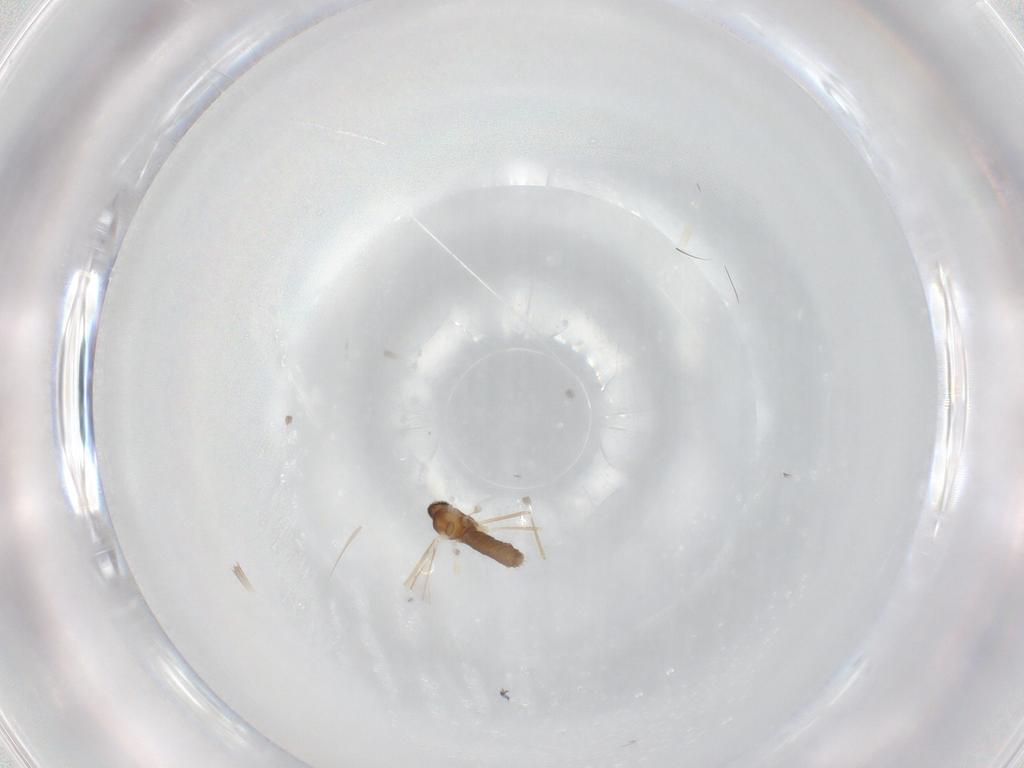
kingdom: Animalia
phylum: Arthropoda
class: Insecta
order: Diptera
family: Cecidomyiidae
